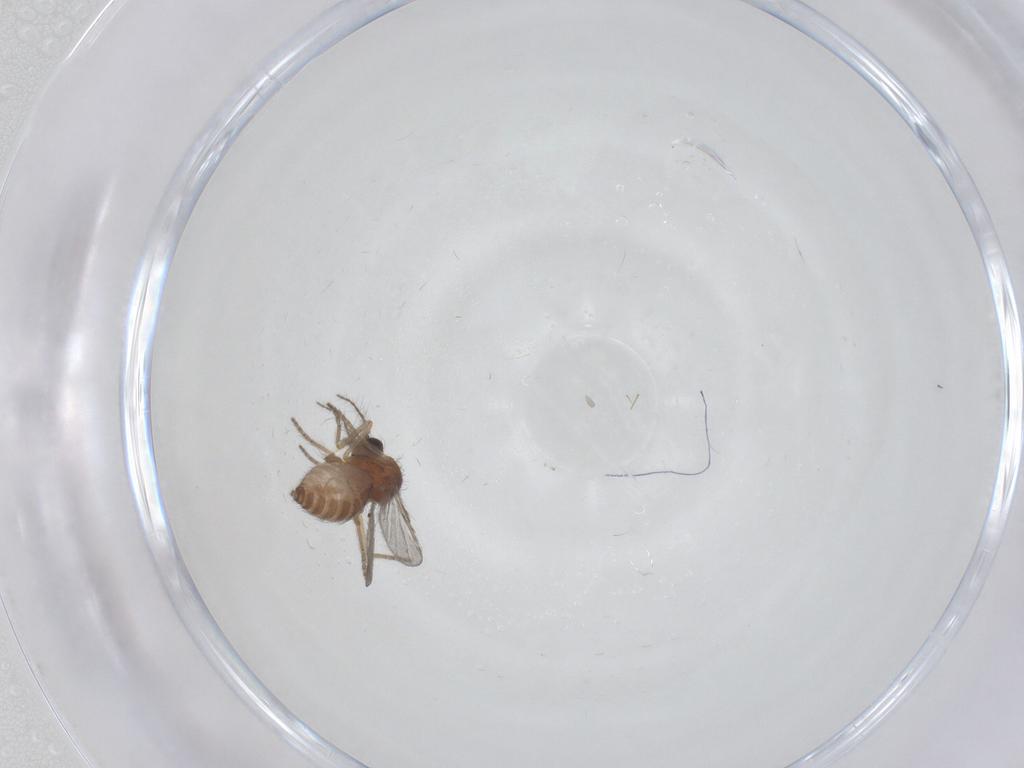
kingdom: Animalia
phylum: Arthropoda
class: Insecta
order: Diptera
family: Ceratopogonidae
